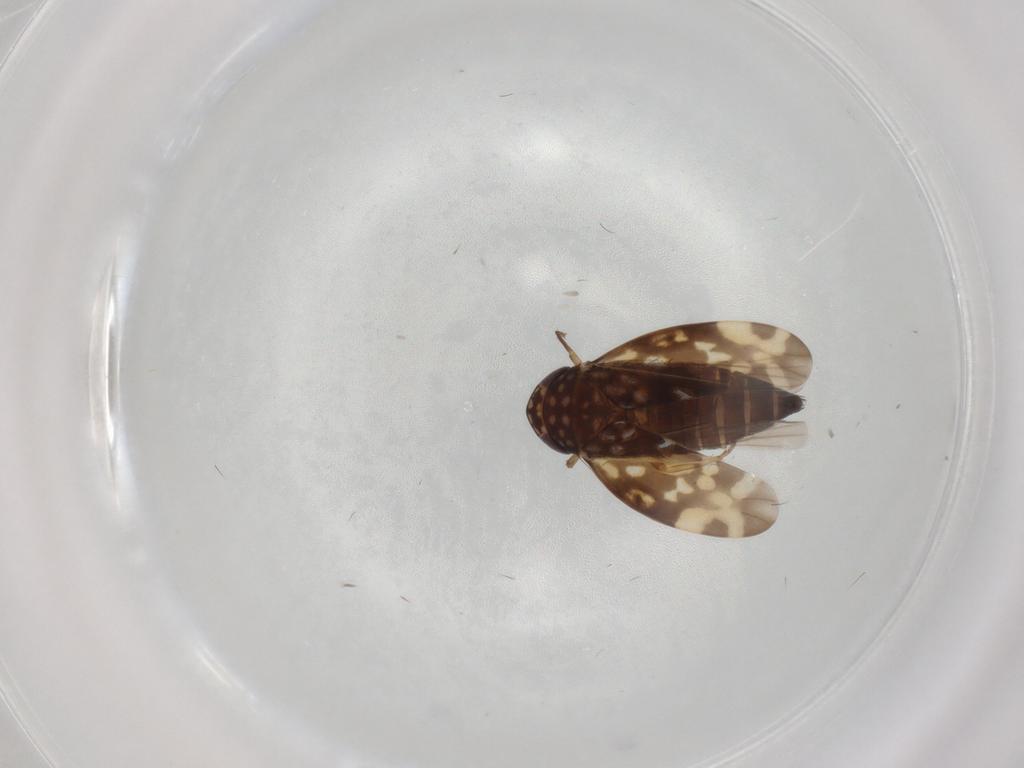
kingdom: Animalia
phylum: Arthropoda
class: Insecta
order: Hemiptera
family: Cicadellidae
